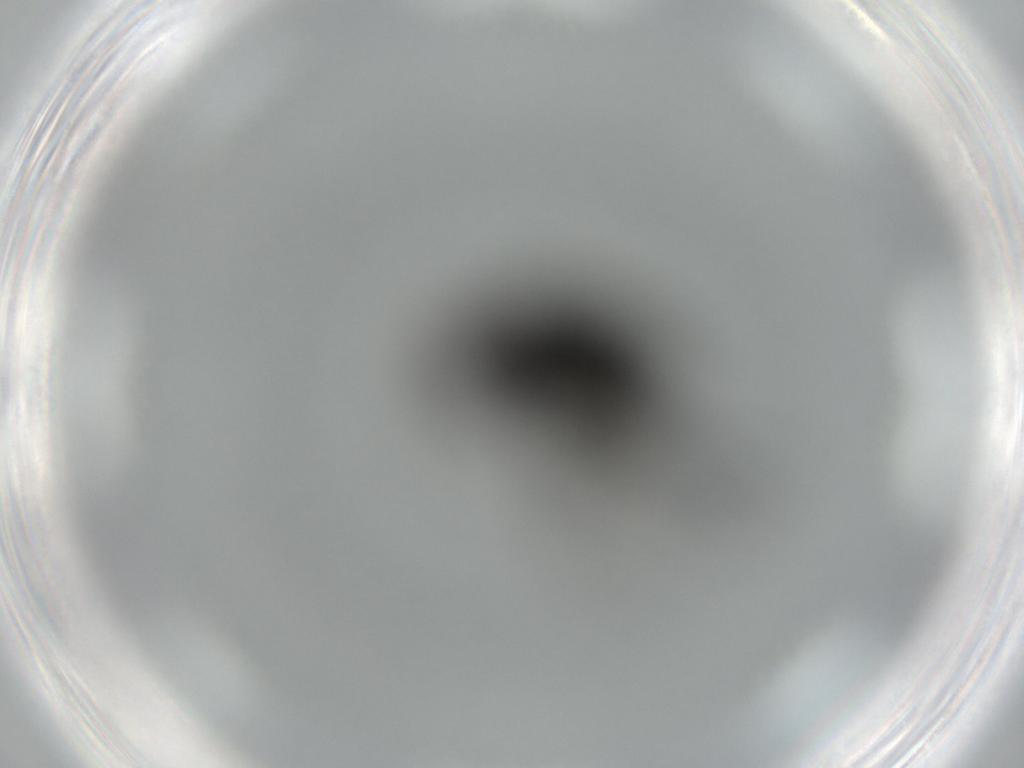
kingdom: Animalia
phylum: Arthropoda
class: Insecta
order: Diptera
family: Agromyzidae
